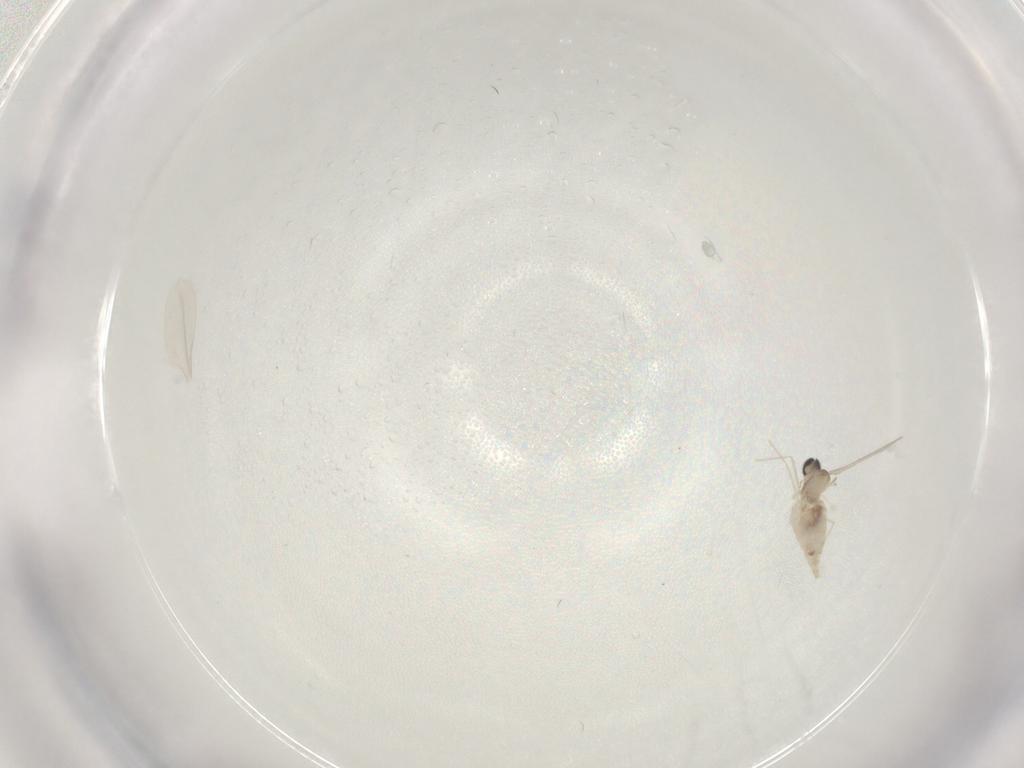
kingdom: Animalia
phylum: Arthropoda
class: Insecta
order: Diptera
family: Cecidomyiidae
